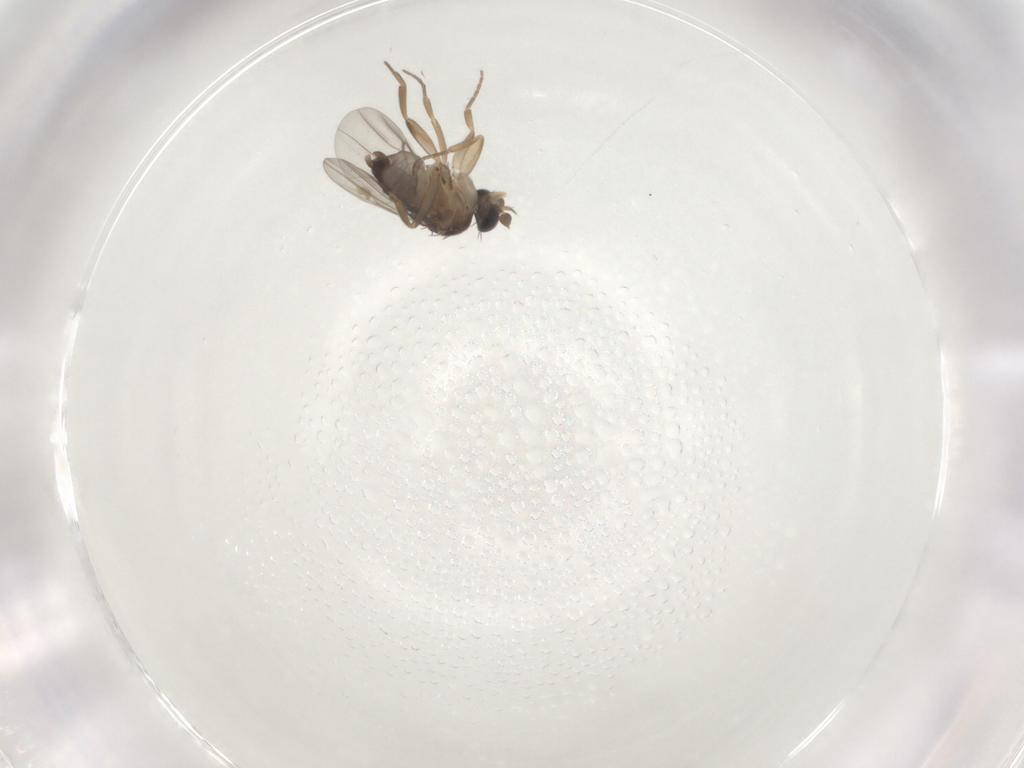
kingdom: Animalia
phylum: Arthropoda
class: Insecta
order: Diptera
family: Phoridae
